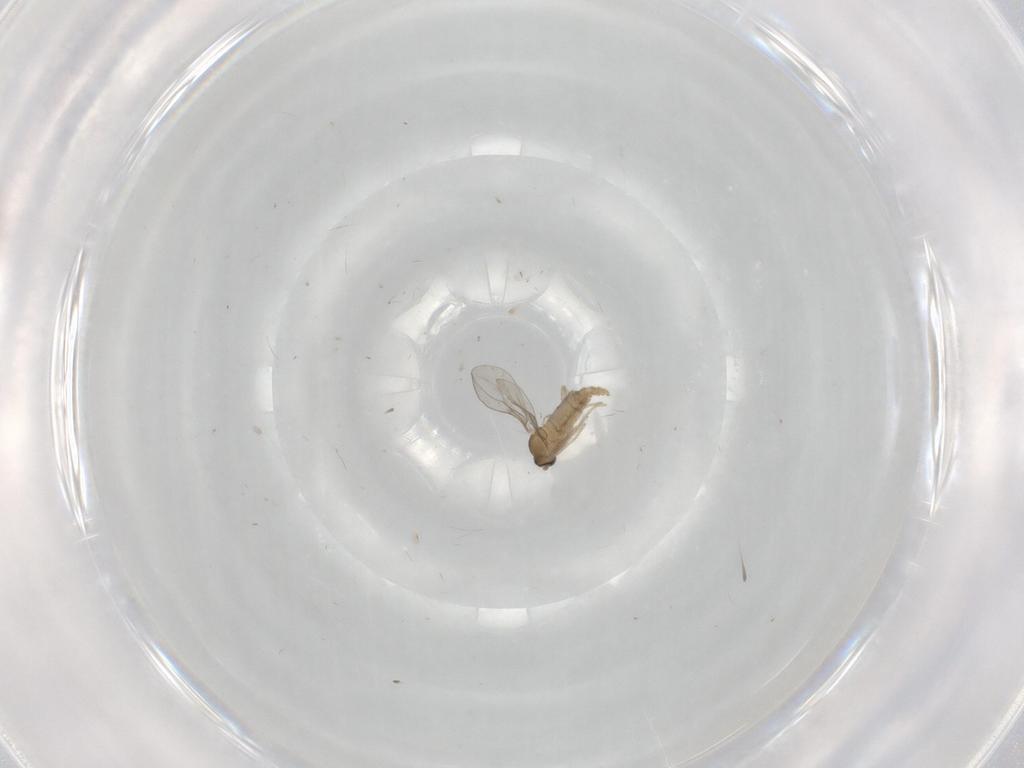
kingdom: Animalia
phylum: Arthropoda
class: Insecta
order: Diptera
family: Cecidomyiidae
